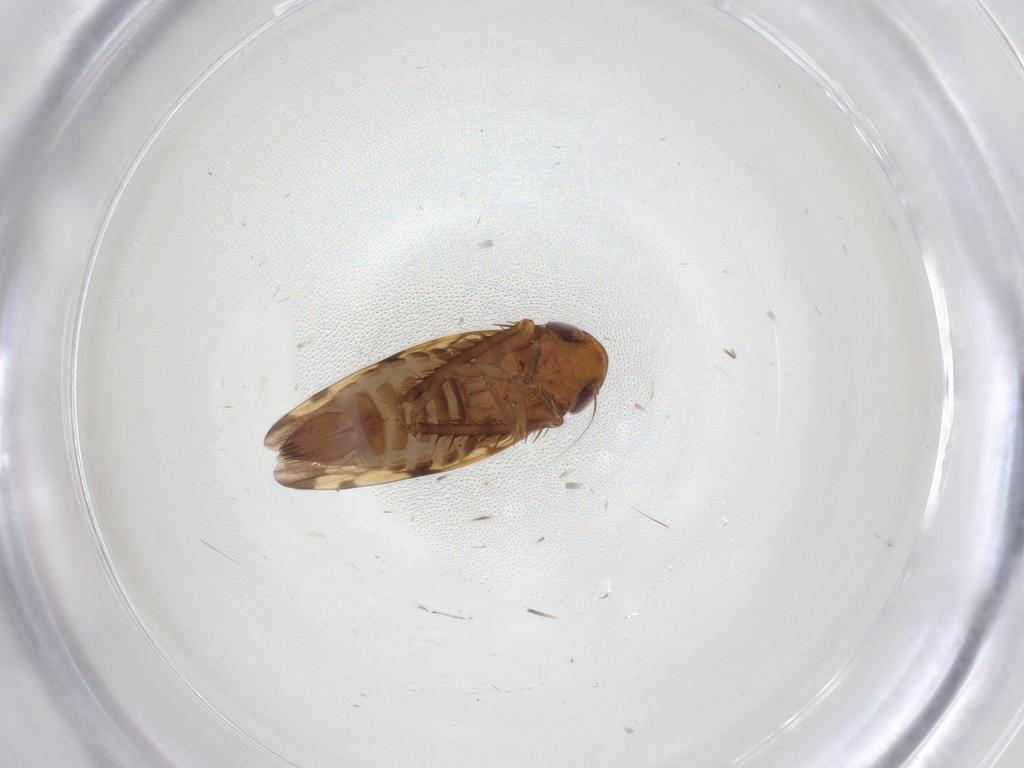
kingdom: Animalia
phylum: Arthropoda
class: Insecta
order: Hemiptera
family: Cicadellidae
